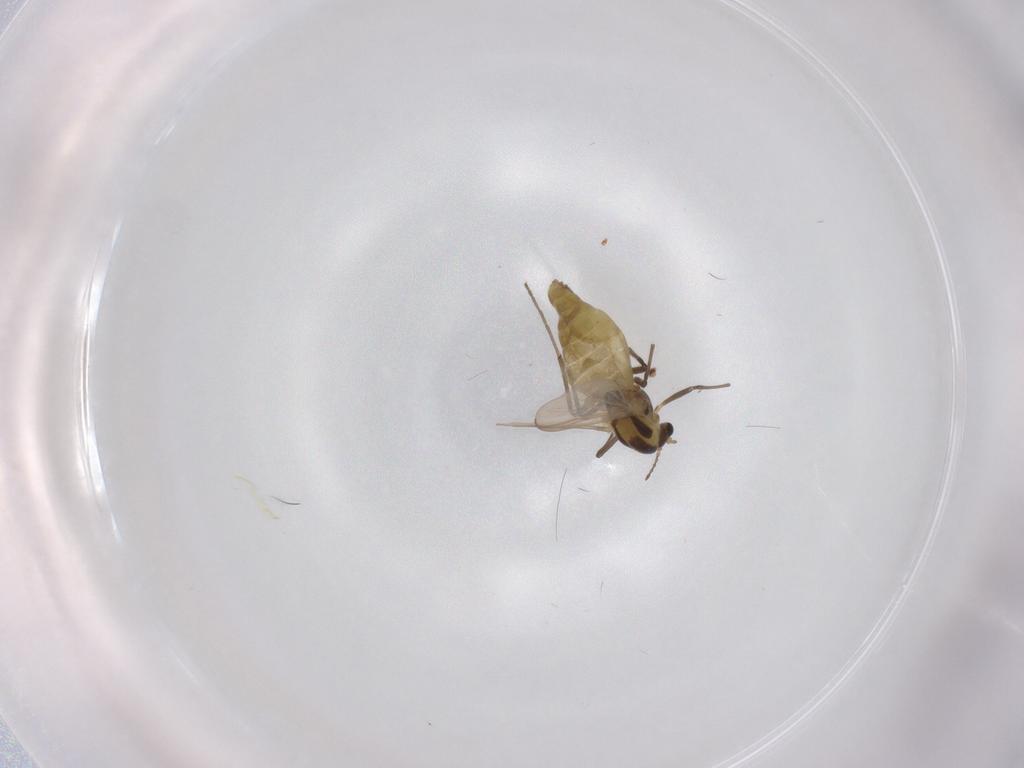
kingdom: Animalia
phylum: Arthropoda
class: Insecta
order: Diptera
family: Chironomidae
